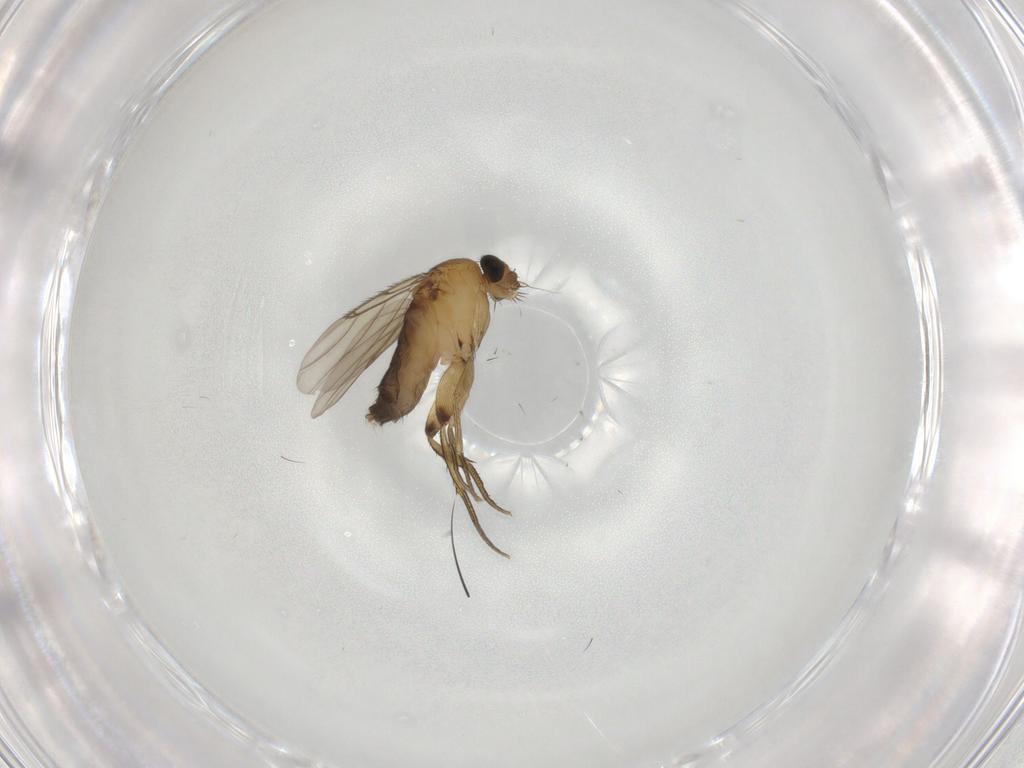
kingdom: Animalia
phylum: Arthropoda
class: Insecta
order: Diptera
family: Phoridae
